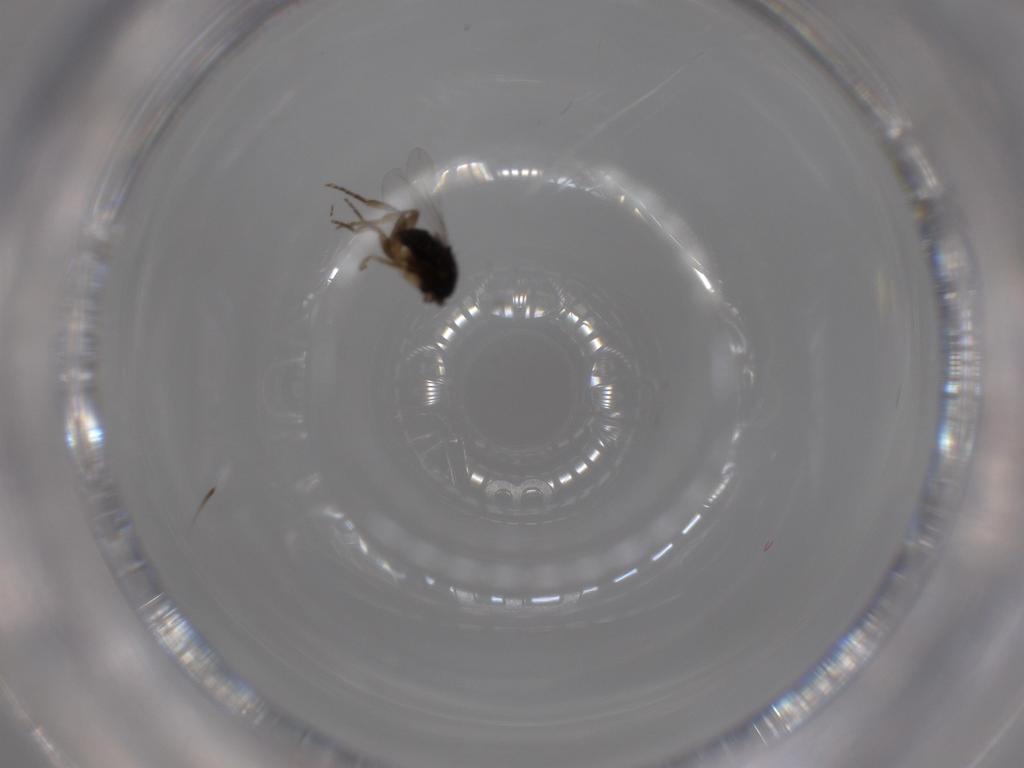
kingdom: Animalia
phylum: Arthropoda
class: Insecta
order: Diptera
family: Phoridae
